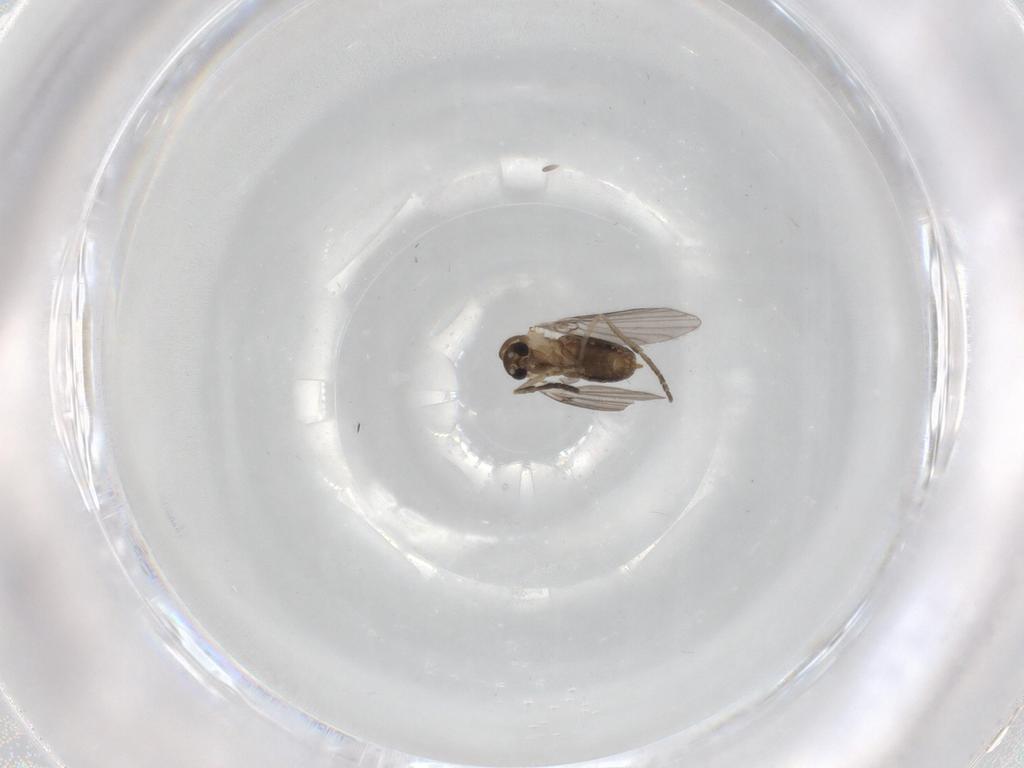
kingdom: Animalia
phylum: Arthropoda
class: Insecta
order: Diptera
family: Psychodidae
